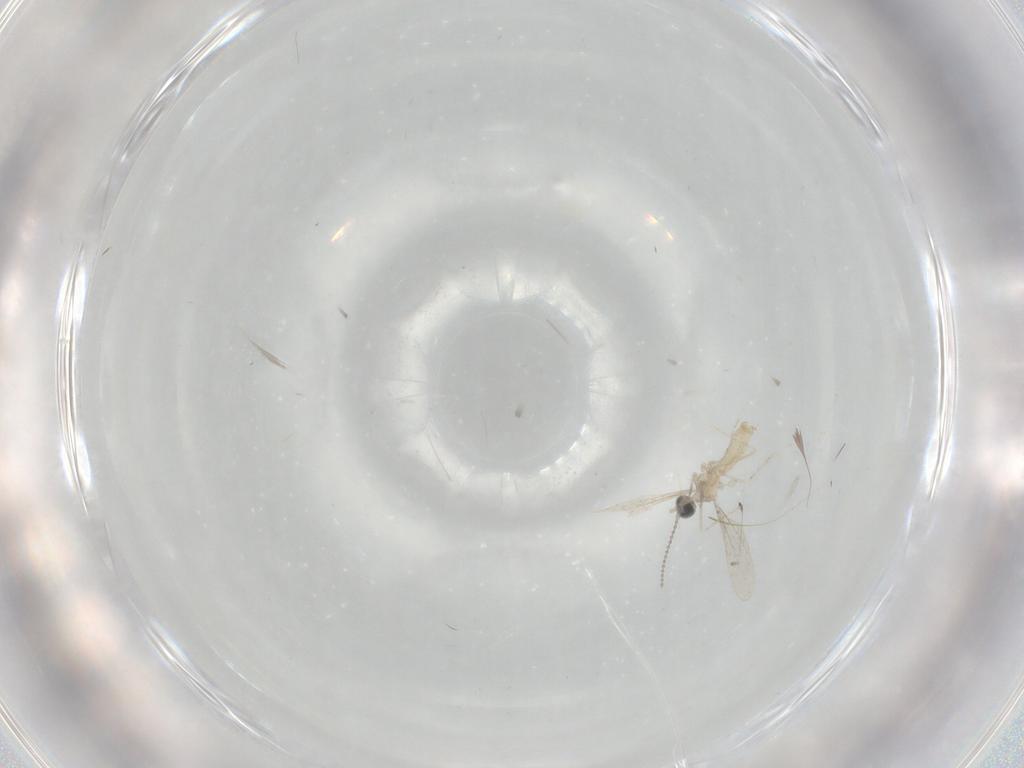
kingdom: Animalia
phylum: Arthropoda
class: Insecta
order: Diptera
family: Cecidomyiidae
